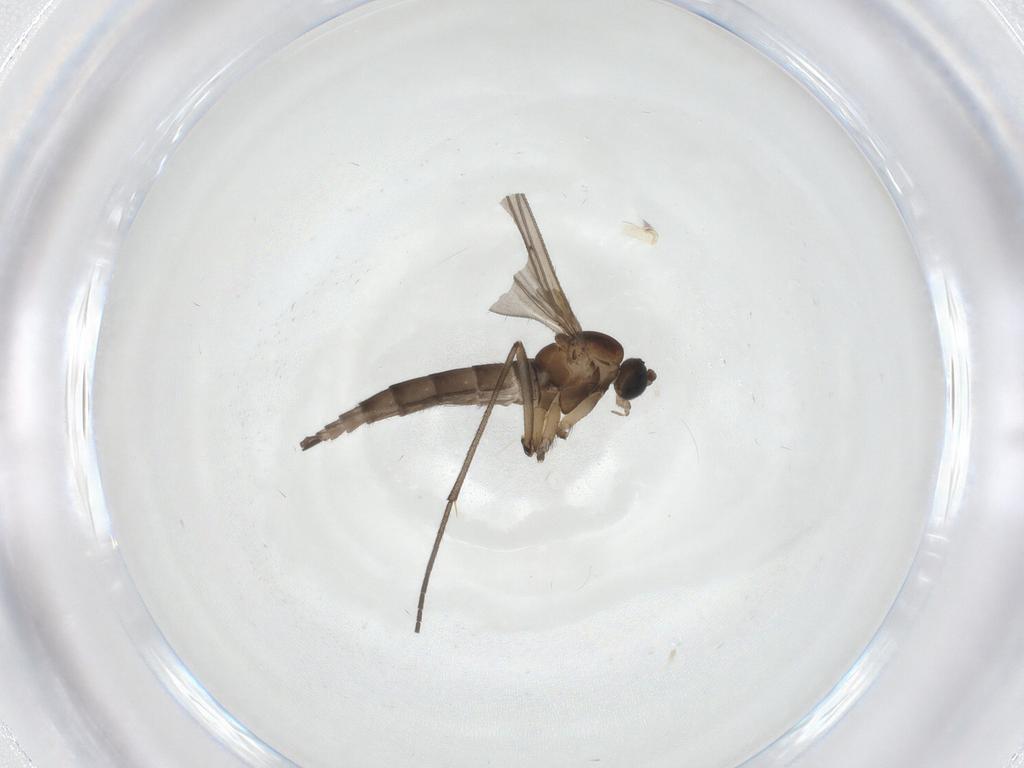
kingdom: Animalia
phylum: Arthropoda
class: Insecta
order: Diptera
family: Sciaridae
